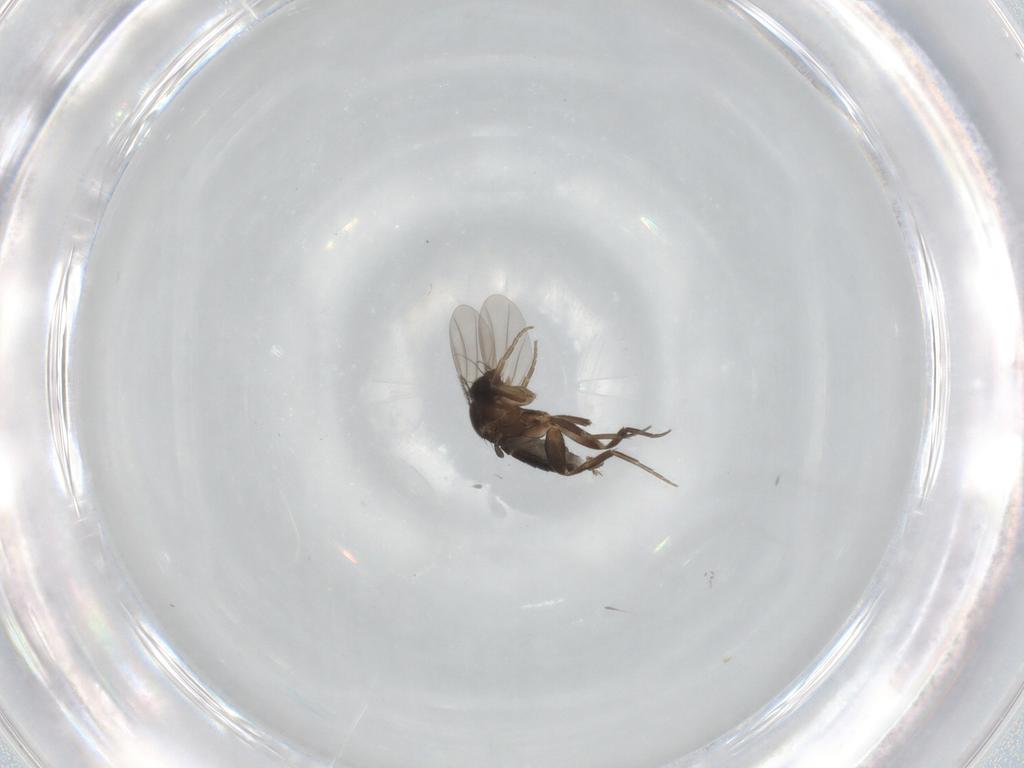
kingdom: Animalia
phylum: Arthropoda
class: Insecta
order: Diptera
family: Phoridae
